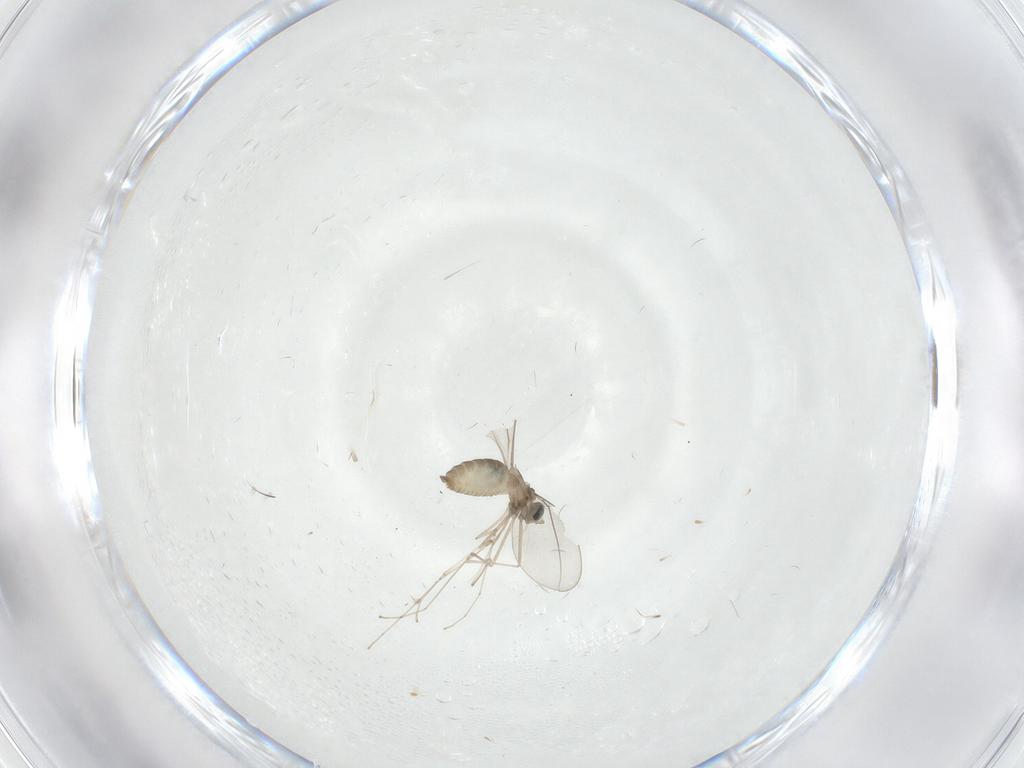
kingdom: Animalia
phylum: Arthropoda
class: Insecta
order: Diptera
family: Cecidomyiidae
